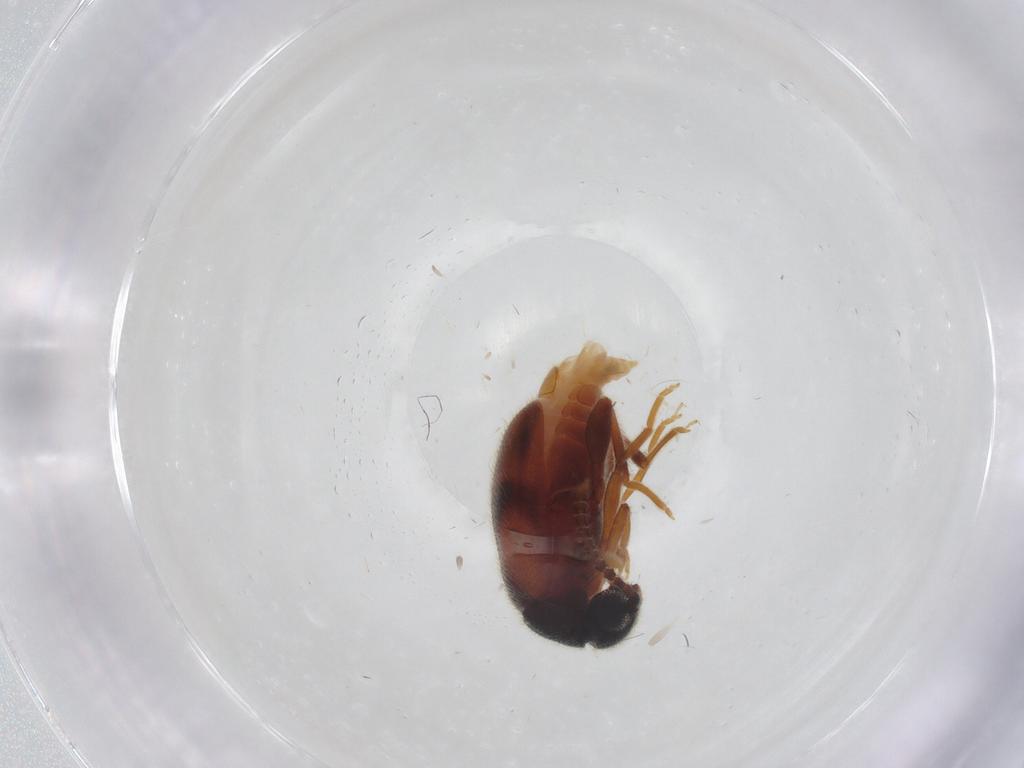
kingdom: Animalia
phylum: Arthropoda
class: Insecta
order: Coleoptera
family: Aderidae
